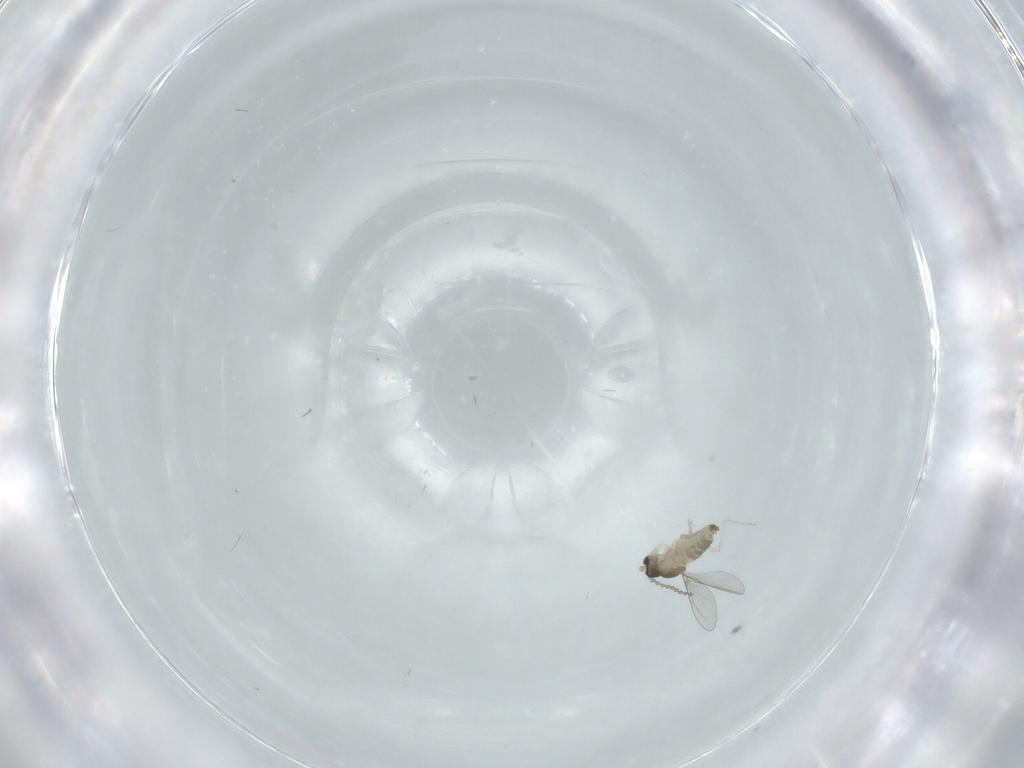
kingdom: Animalia
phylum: Arthropoda
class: Insecta
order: Diptera
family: Cecidomyiidae
